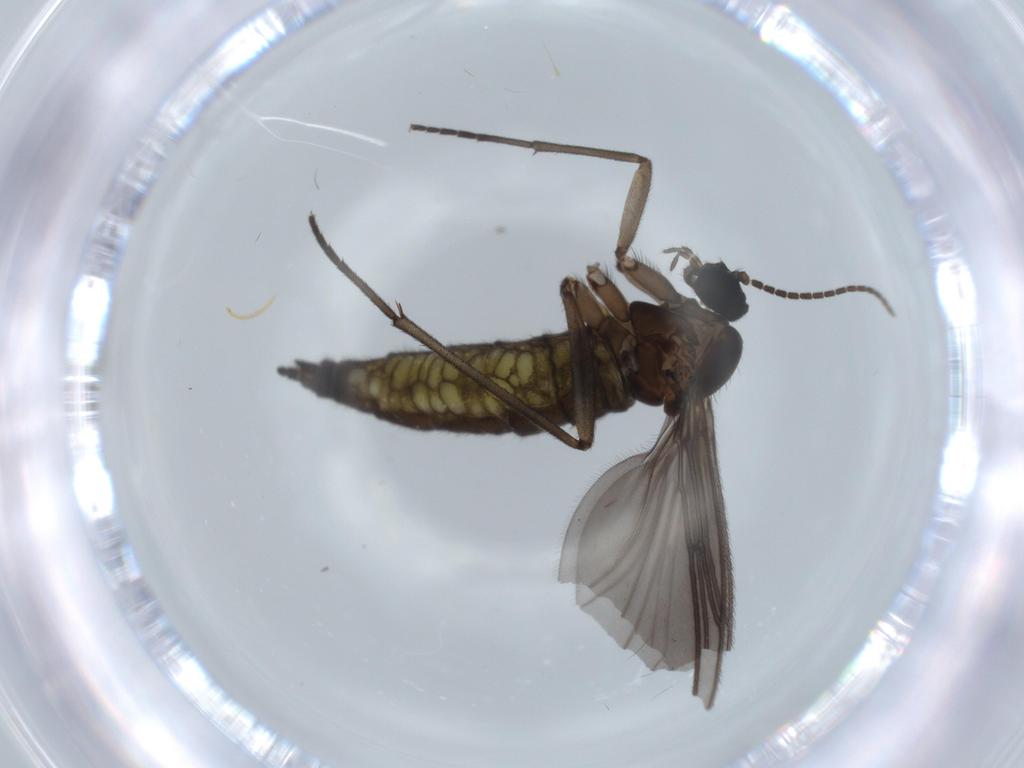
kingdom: Animalia
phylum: Arthropoda
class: Insecta
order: Diptera
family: Sciaridae
